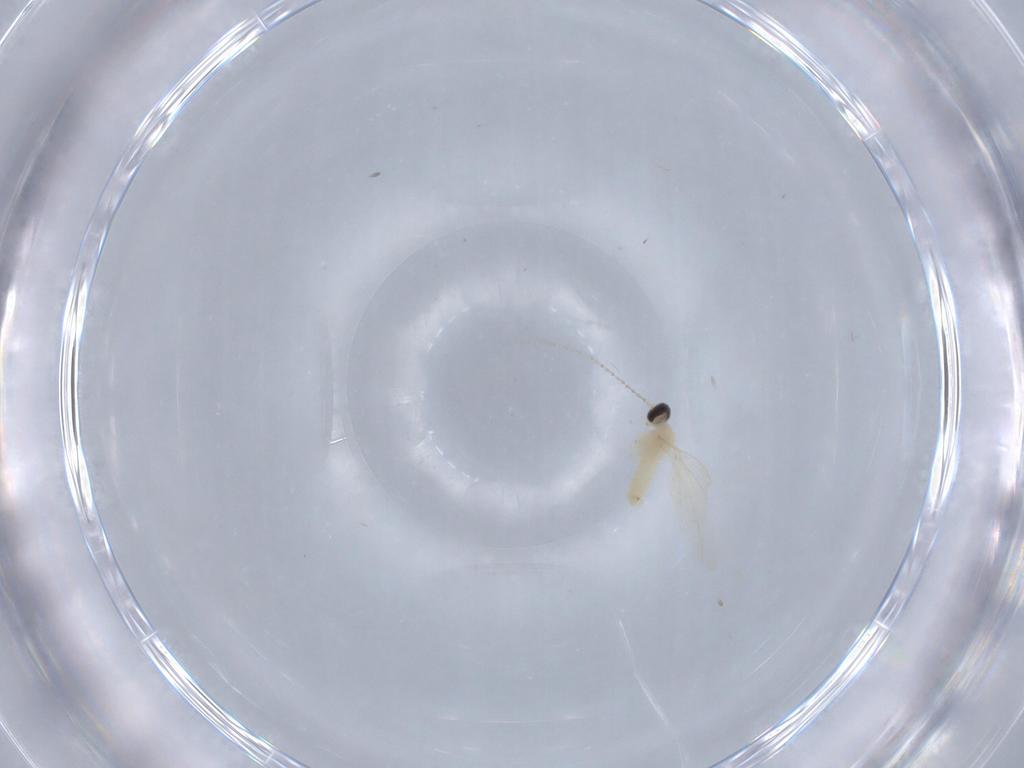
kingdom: Animalia
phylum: Arthropoda
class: Insecta
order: Diptera
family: Cecidomyiidae
